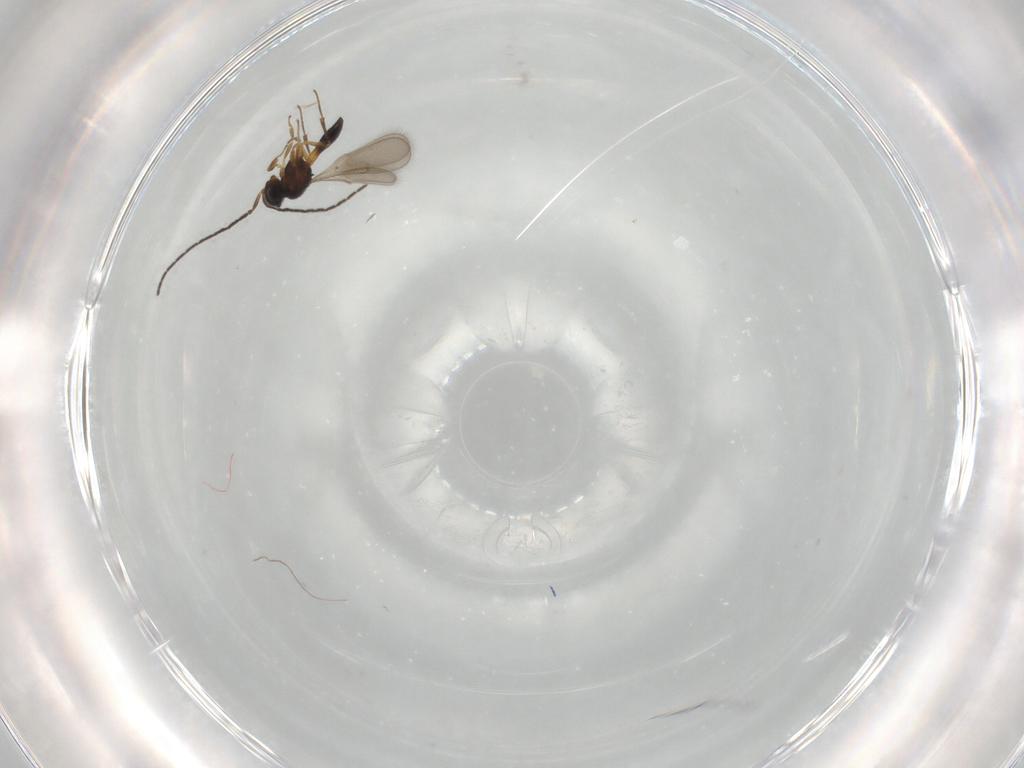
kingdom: Animalia
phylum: Arthropoda
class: Insecta
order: Hymenoptera
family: Scelionidae
